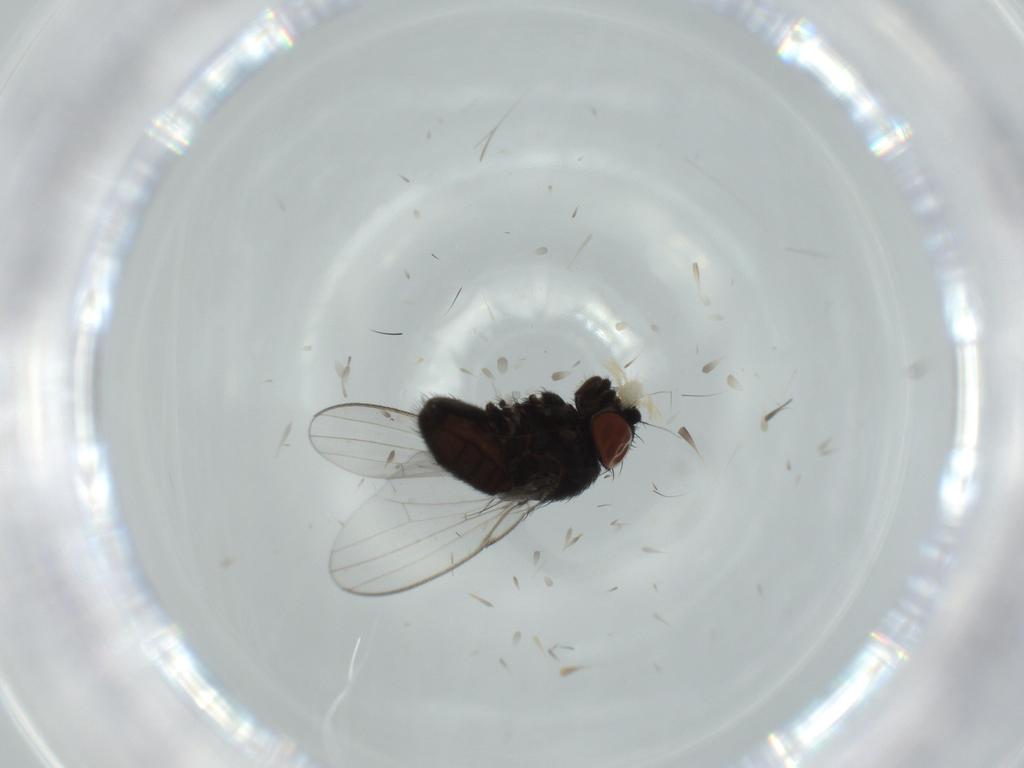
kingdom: Animalia
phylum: Arthropoda
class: Insecta
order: Diptera
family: Milichiidae
